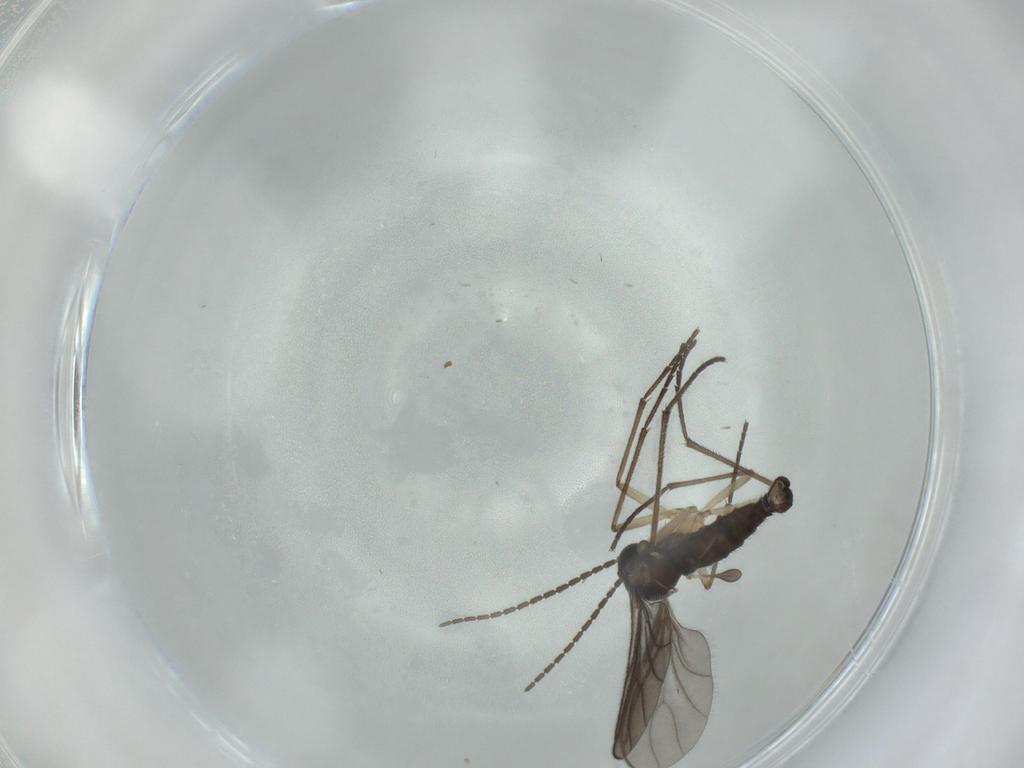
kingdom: Animalia
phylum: Arthropoda
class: Insecta
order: Diptera
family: Sciaridae
